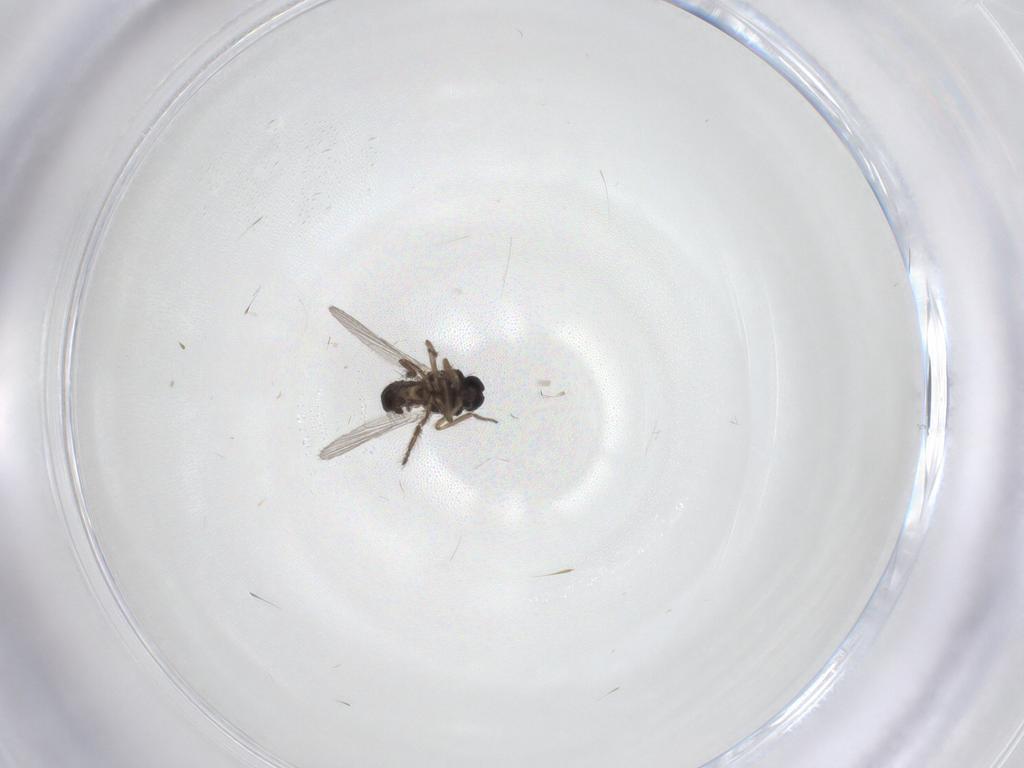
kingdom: Animalia
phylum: Arthropoda
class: Insecta
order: Diptera
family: Ceratopogonidae
